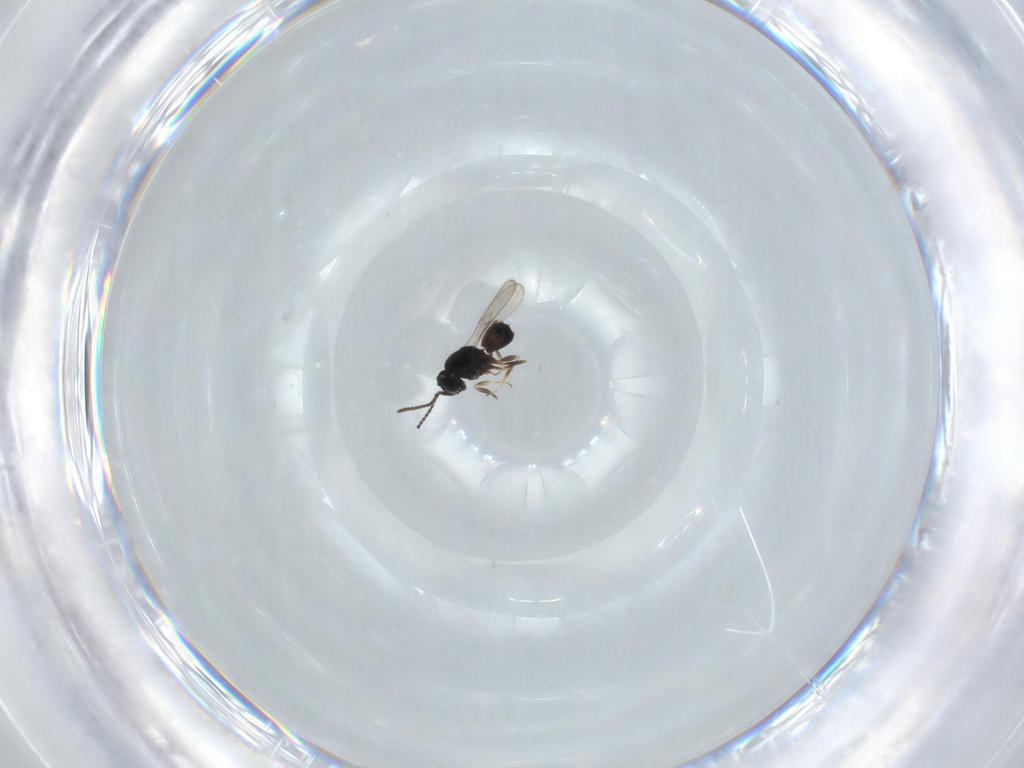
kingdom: Animalia
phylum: Arthropoda
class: Insecta
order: Hymenoptera
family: Scelionidae
